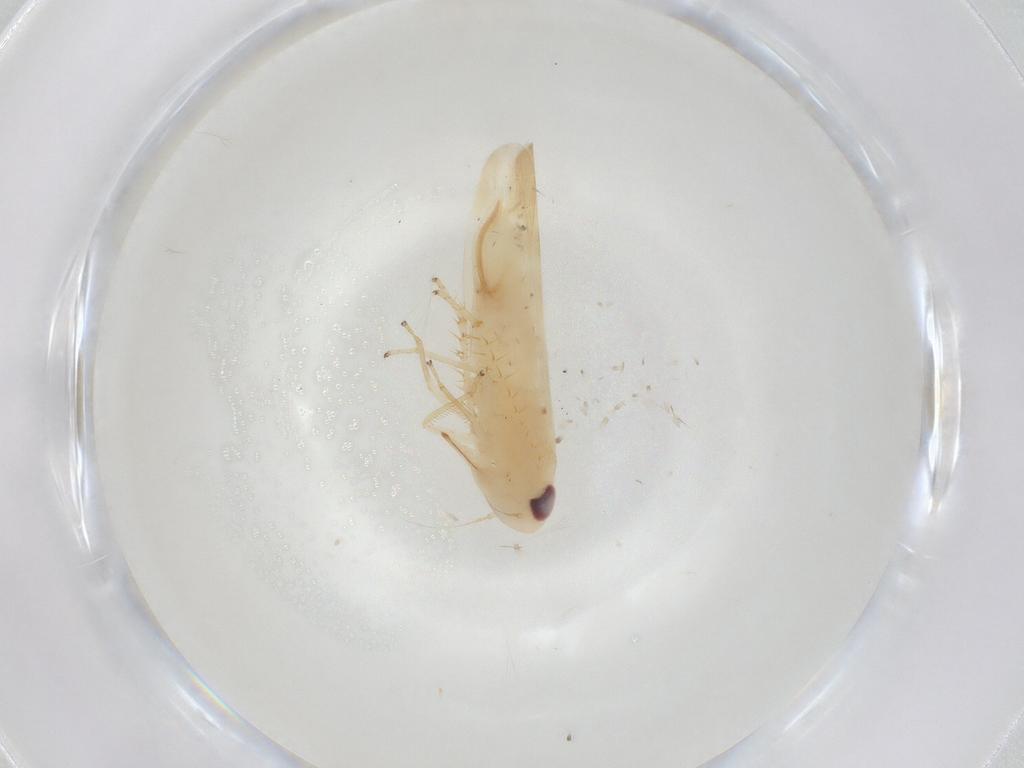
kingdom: Animalia
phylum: Arthropoda
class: Insecta
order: Hemiptera
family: Cicadellidae
